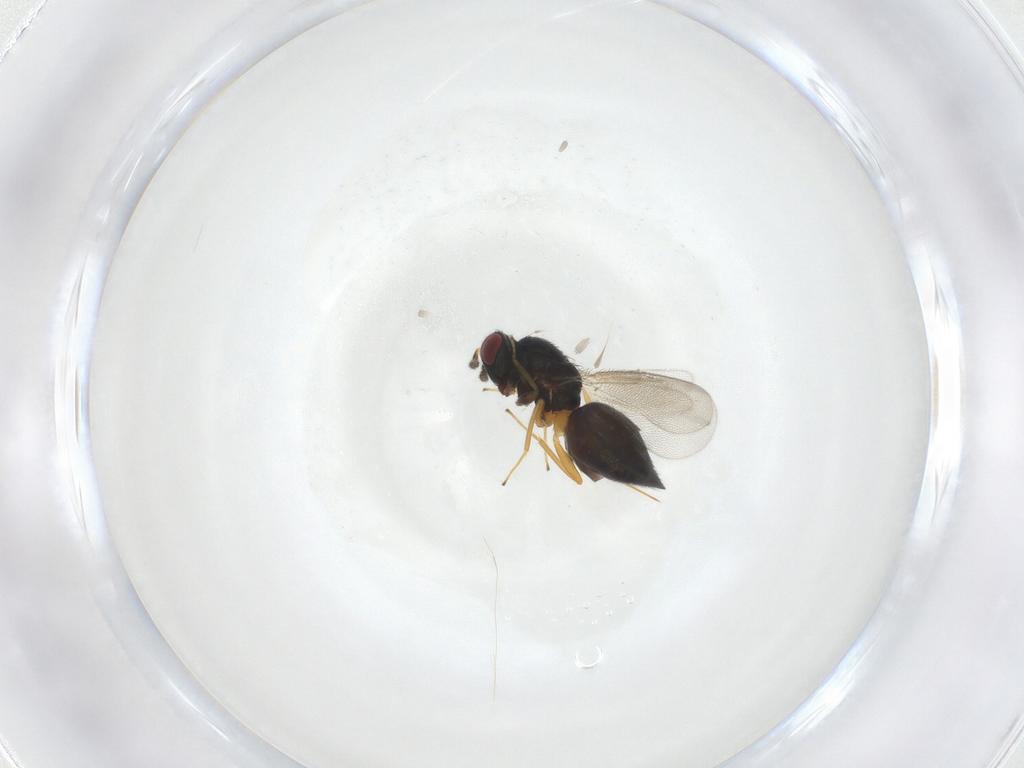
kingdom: Animalia
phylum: Arthropoda
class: Insecta
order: Hymenoptera
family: Eulophidae
